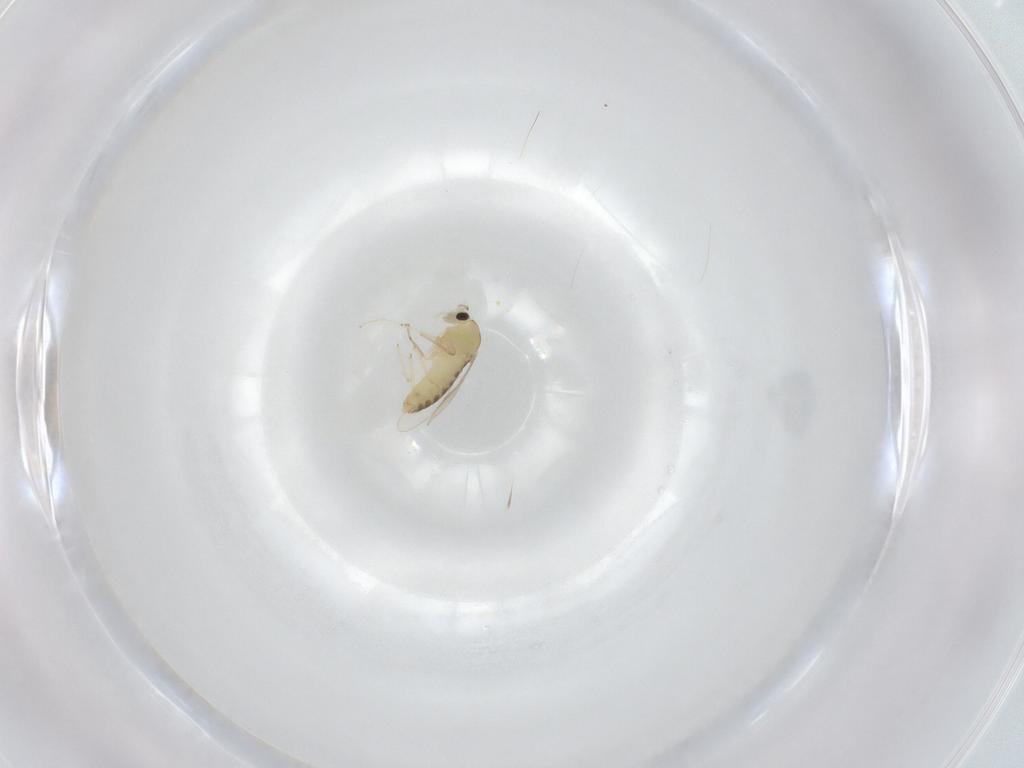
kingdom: Animalia
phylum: Arthropoda
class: Insecta
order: Diptera
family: Chironomidae
